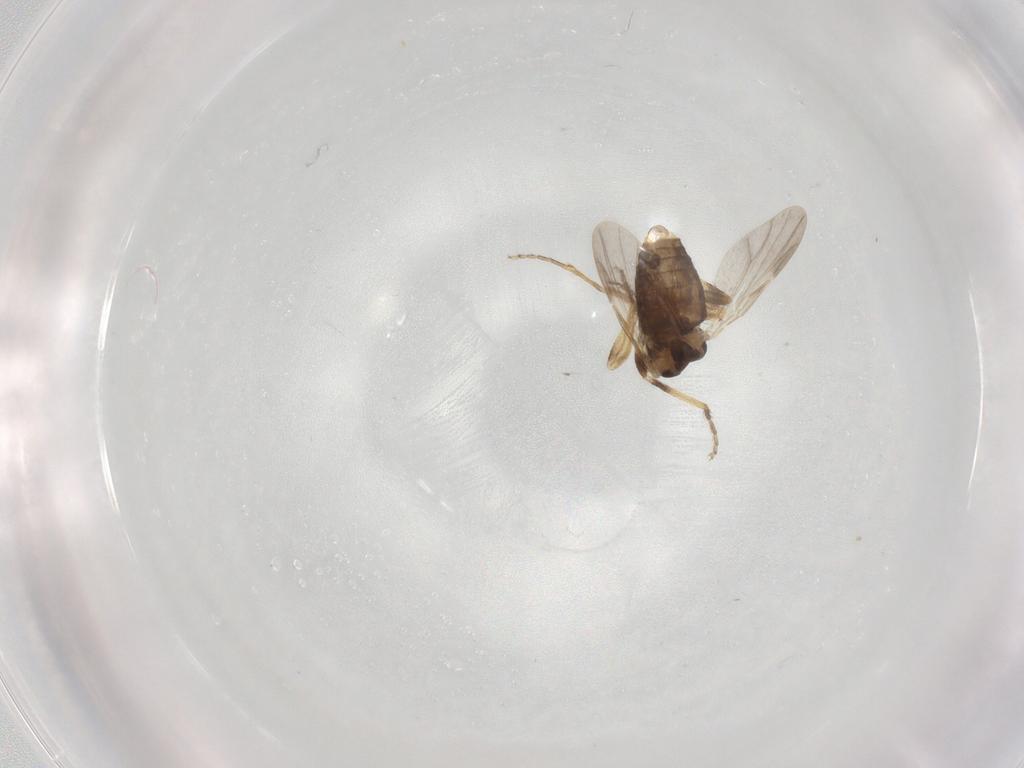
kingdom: Animalia
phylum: Arthropoda
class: Insecta
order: Diptera
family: Ceratopogonidae
